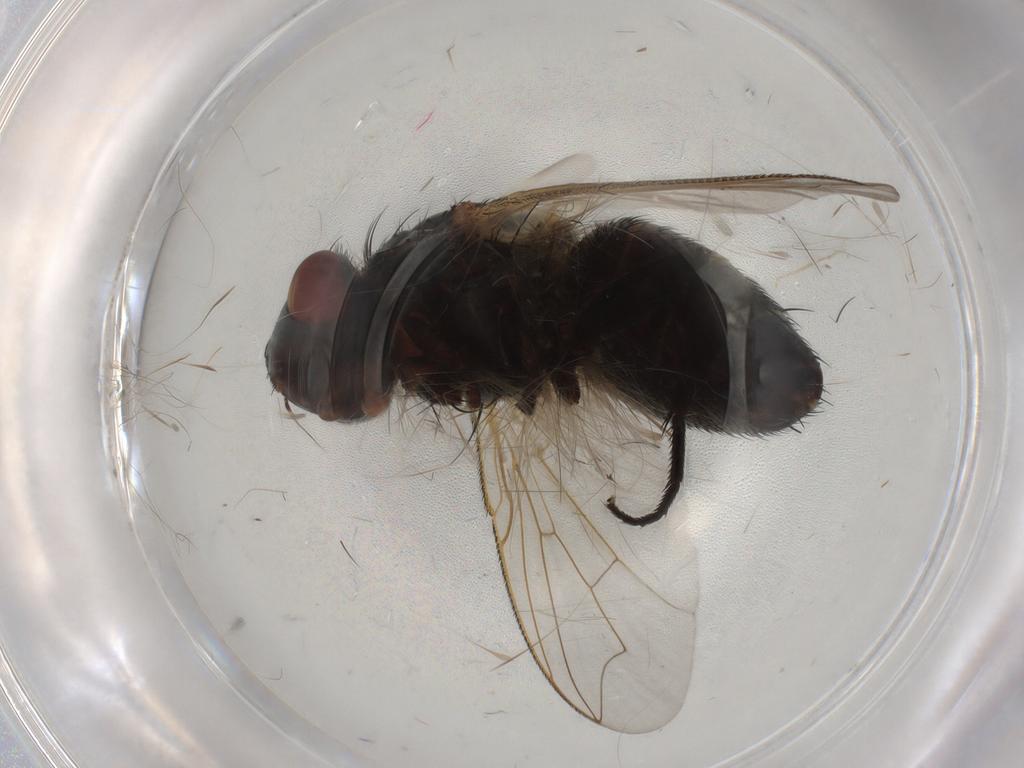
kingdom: Animalia
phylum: Arthropoda
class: Insecta
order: Diptera
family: Sarcophagidae
